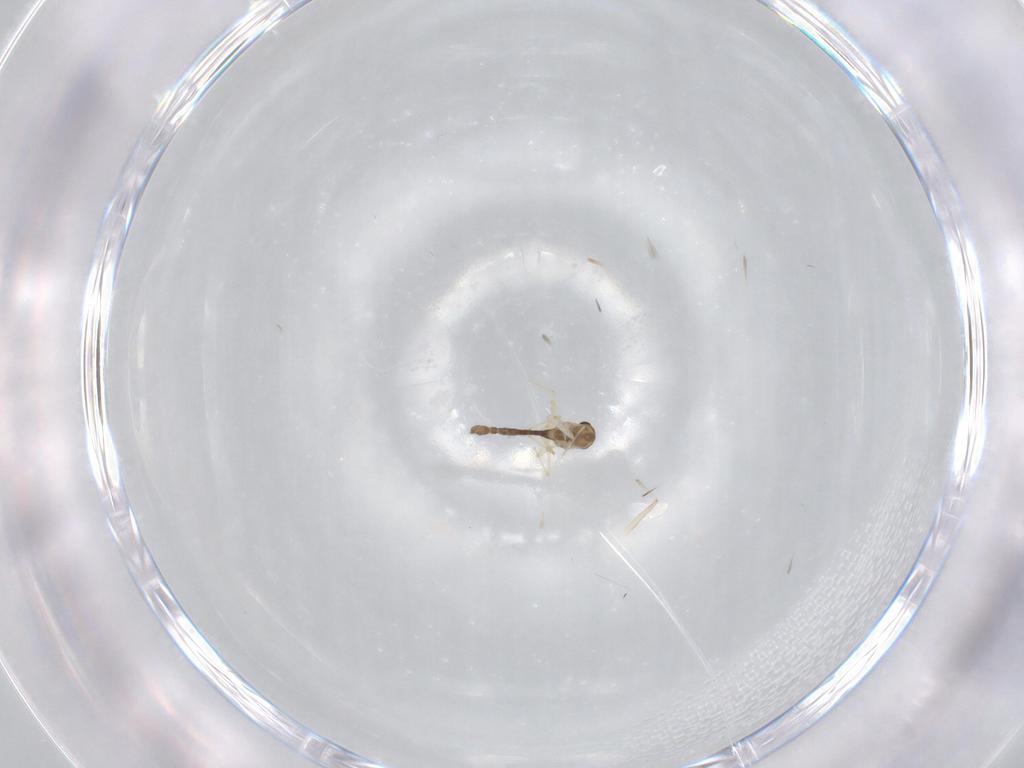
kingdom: Animalia
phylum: Arthropoda
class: Insecta
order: Diptera
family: Chironomidae
